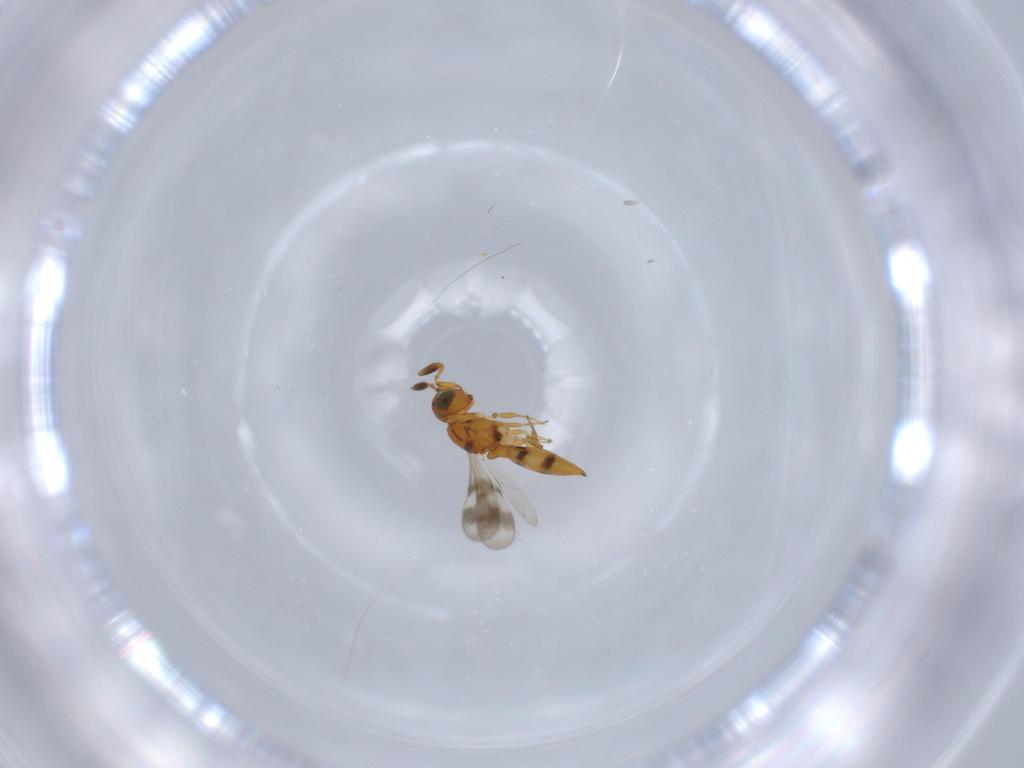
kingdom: Animalia
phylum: Arthropoda
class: Insecta
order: Hymenoptera
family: Scelionidae
